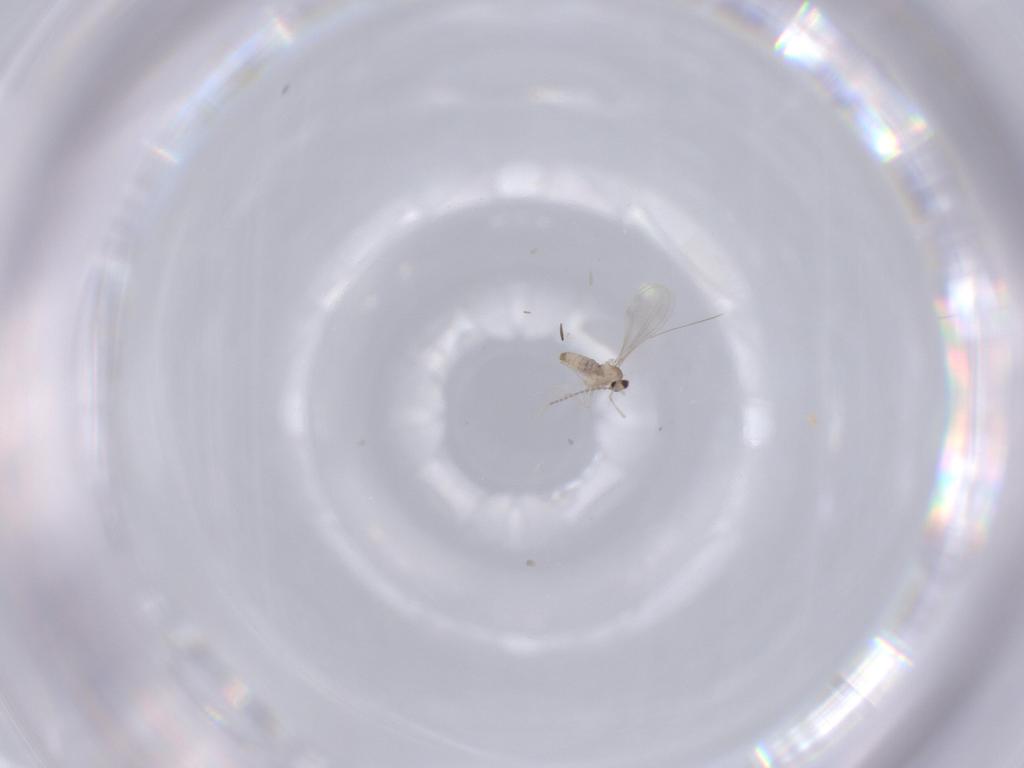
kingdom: Animalia
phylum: Arthropoda
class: Insecta
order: Diptera
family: Cecidomyiidae
